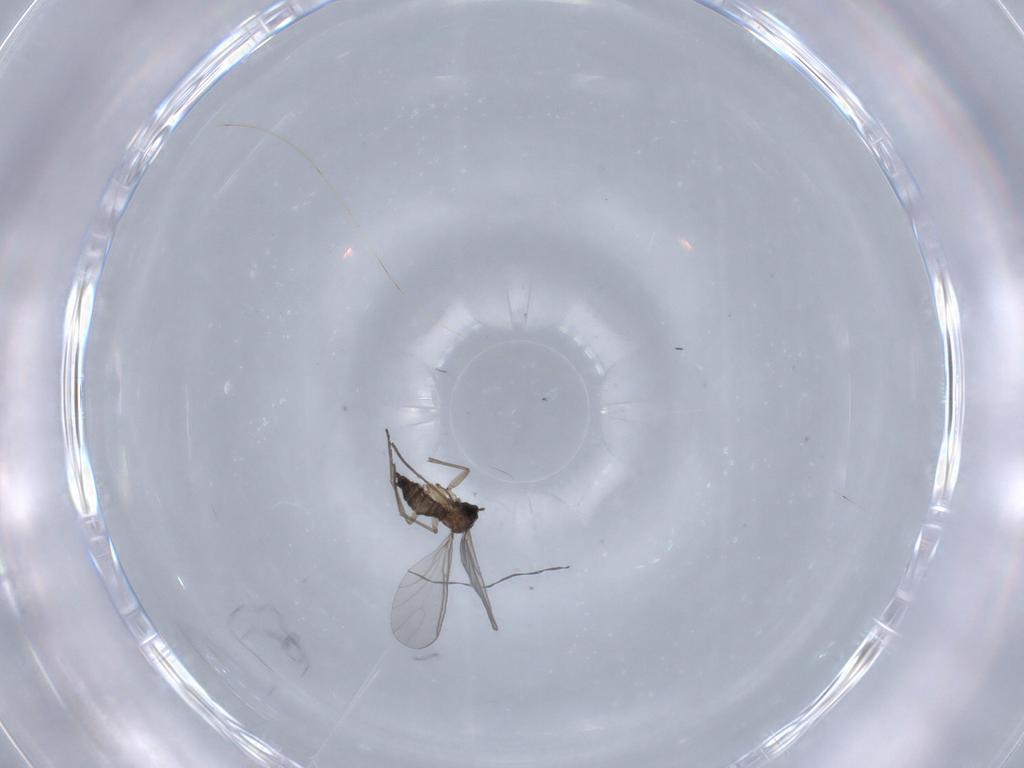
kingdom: Animalia
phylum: Arthropoda
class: Insecta
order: Diptera
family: Sciaridae
